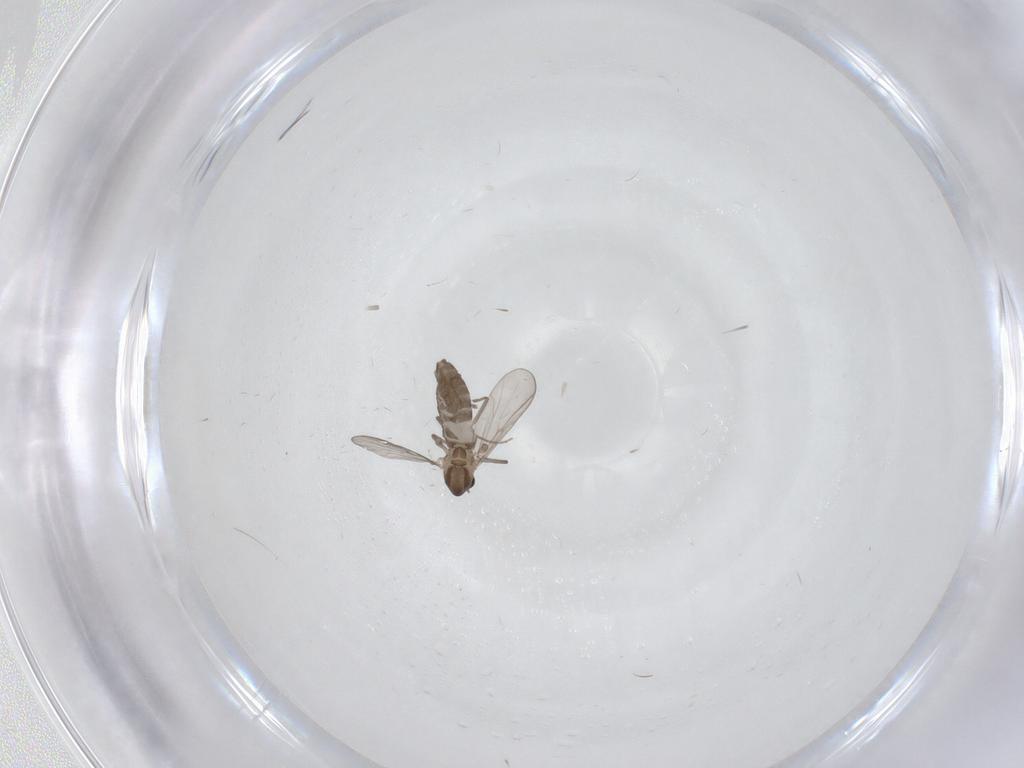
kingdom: Animalia
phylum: Arthropoda
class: Insecta
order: Diptera
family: Chironomidae
